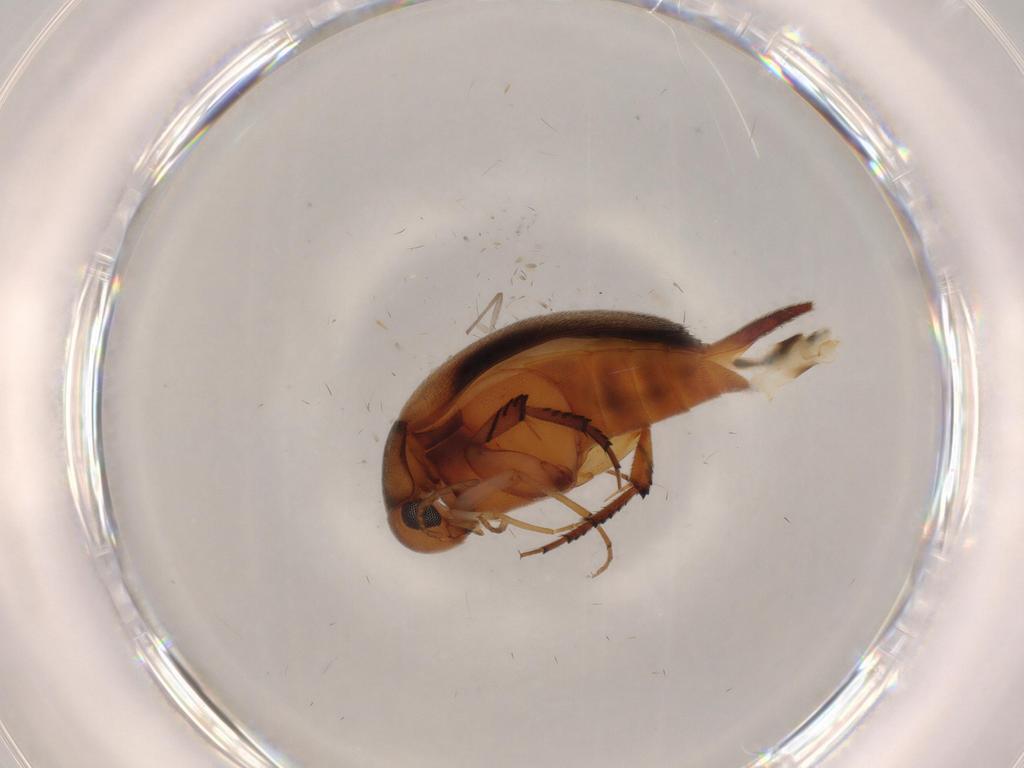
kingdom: Animalia
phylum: Arthropoda
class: Insecta
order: Coleoptera
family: Mordellidae
